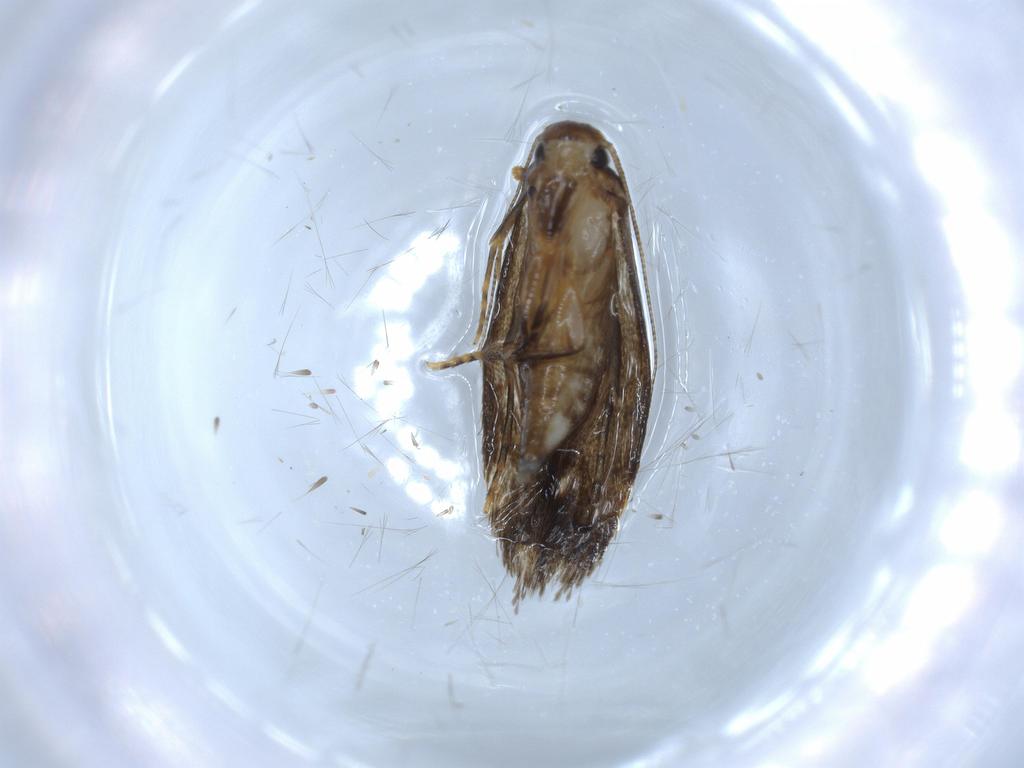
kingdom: Animalia
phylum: Arthropoda
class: Insecta
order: Lepidoptera
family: Tineidae
